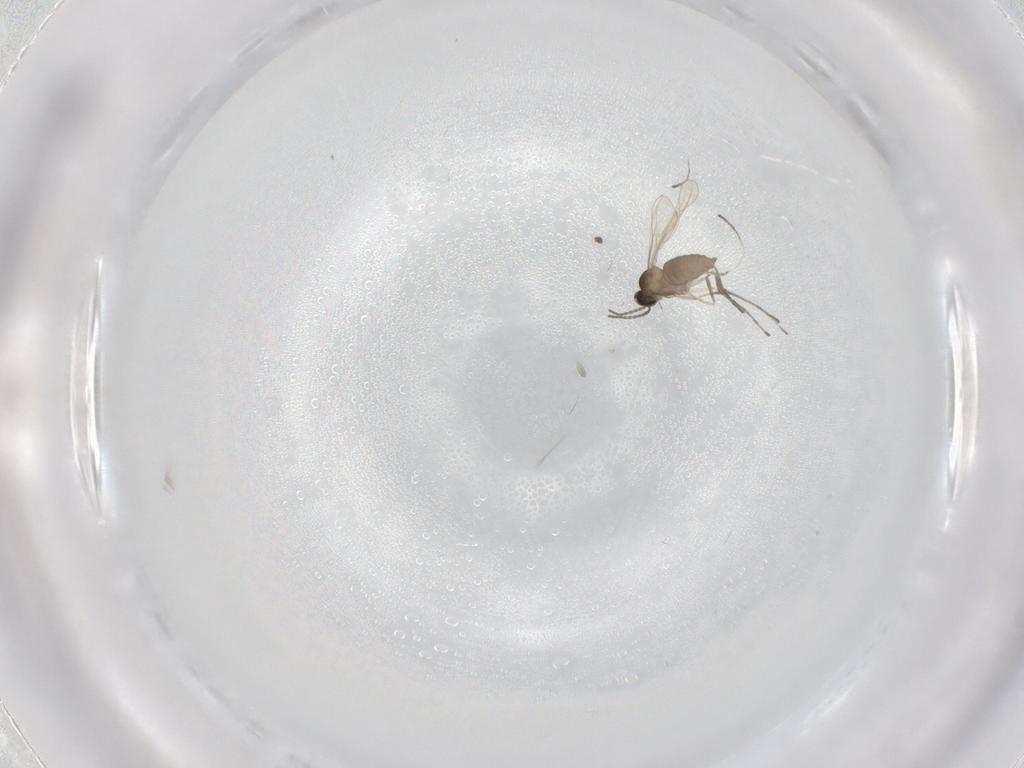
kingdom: Animalia
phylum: Arthropoda
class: Insecta
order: Diptera
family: Cecidomyiidae
